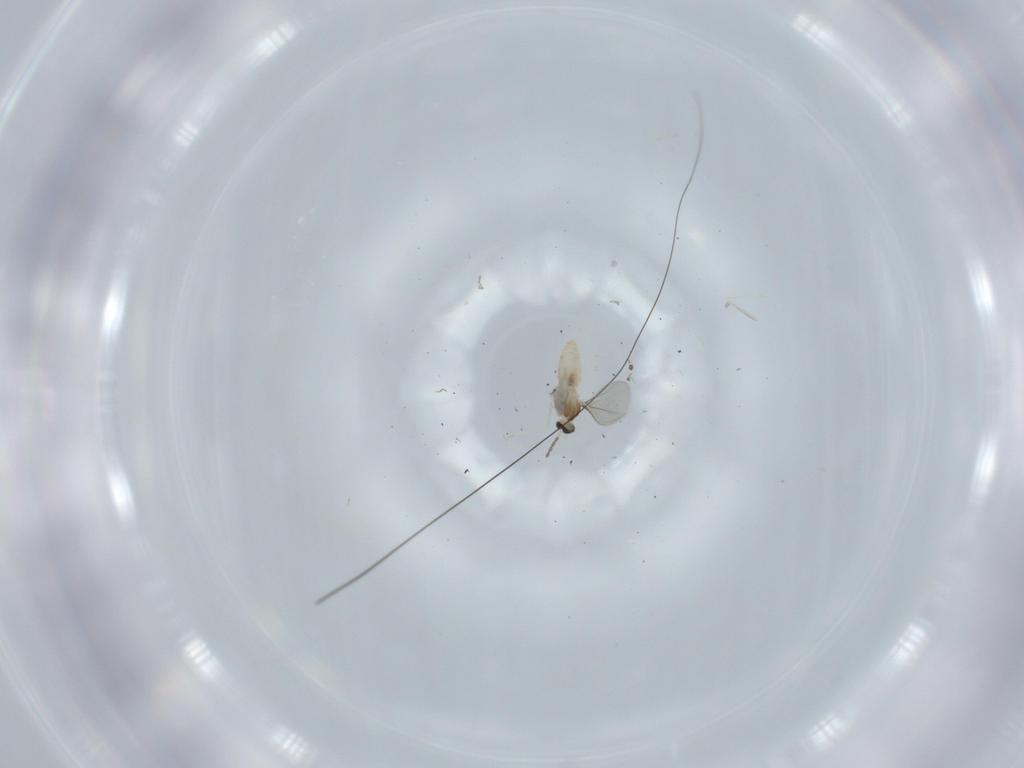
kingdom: Animalia
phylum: Arthropoda
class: Insecta
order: Diptera
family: Cecidomyiidae
